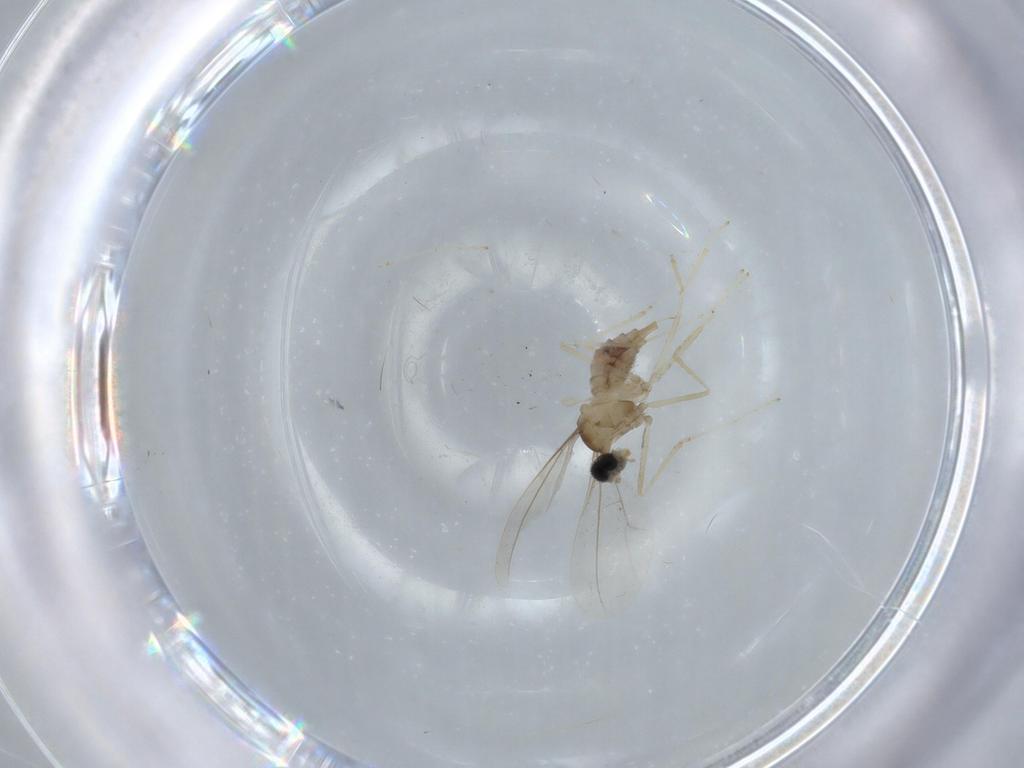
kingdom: Animalia
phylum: Arthropoda
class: Insecta
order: Diptera
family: Cecidomyiidae
